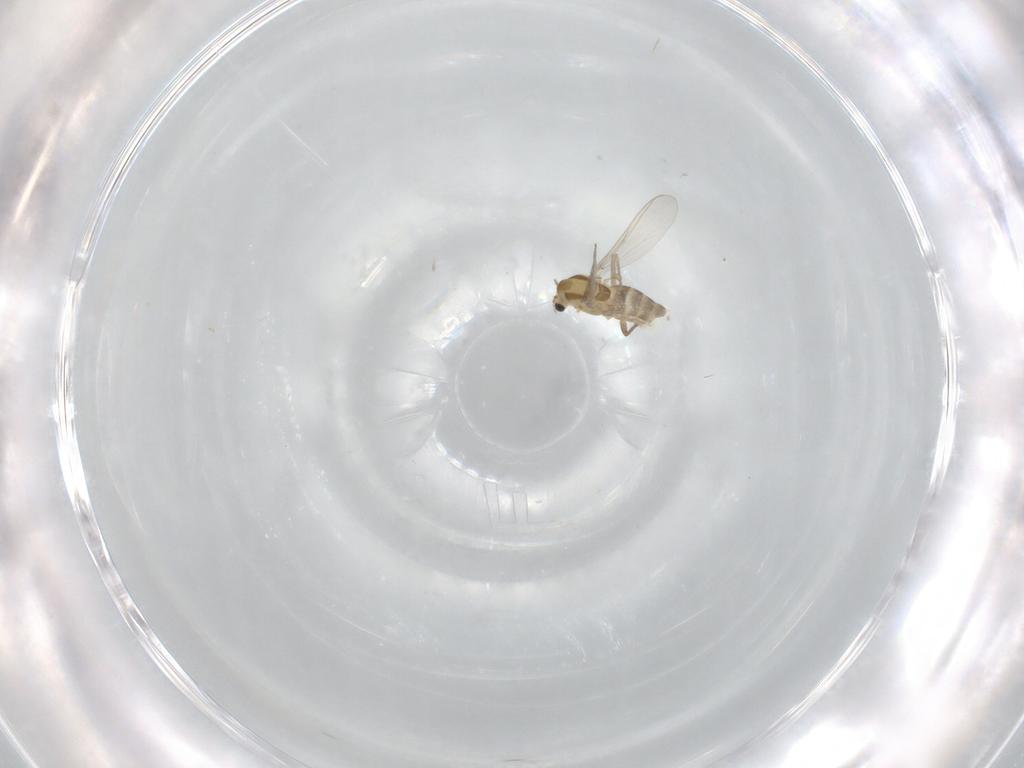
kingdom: Animalia
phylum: Arthropoda
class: Insecta
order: Diptera
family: Chironomidae
